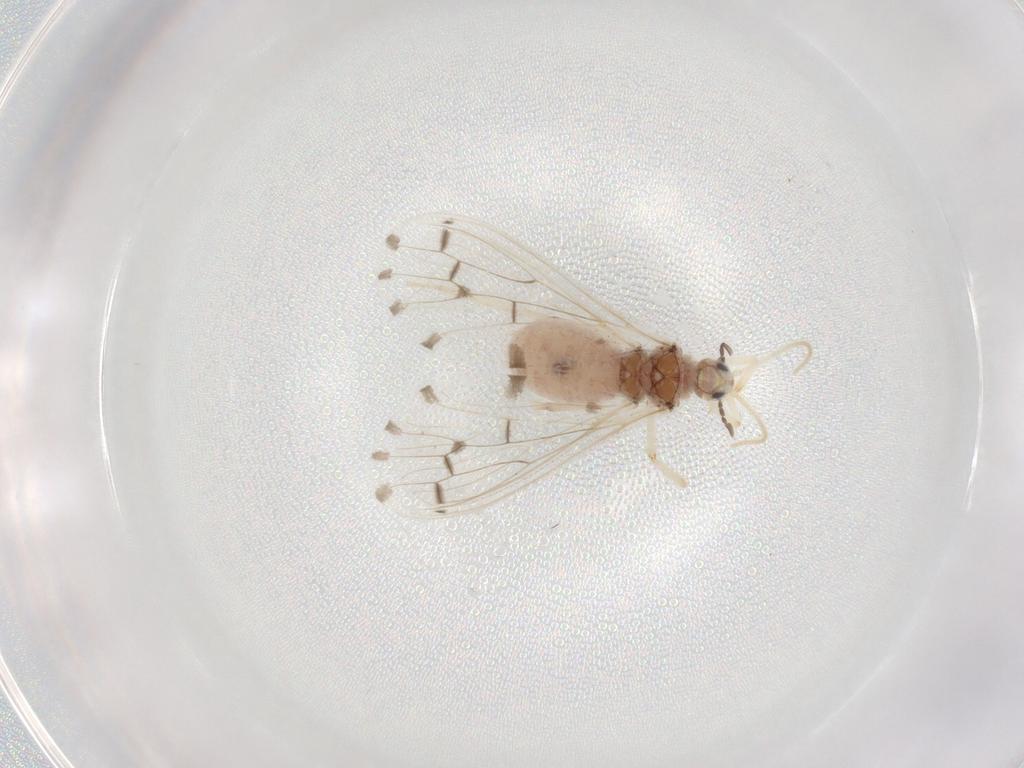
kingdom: Animalia
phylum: Arthropoda
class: Insecta
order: Neuroptera
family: Coniopterygidae
